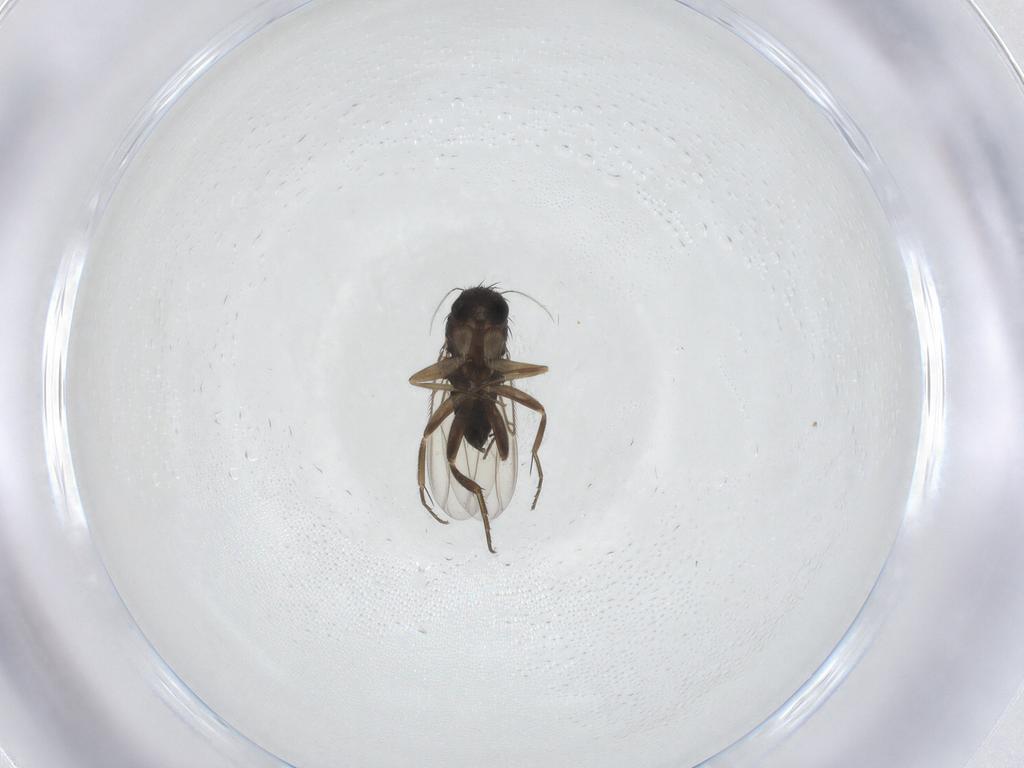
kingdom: Animalia
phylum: Arthropoda
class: Insecta
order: Diptera
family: Phoridae
